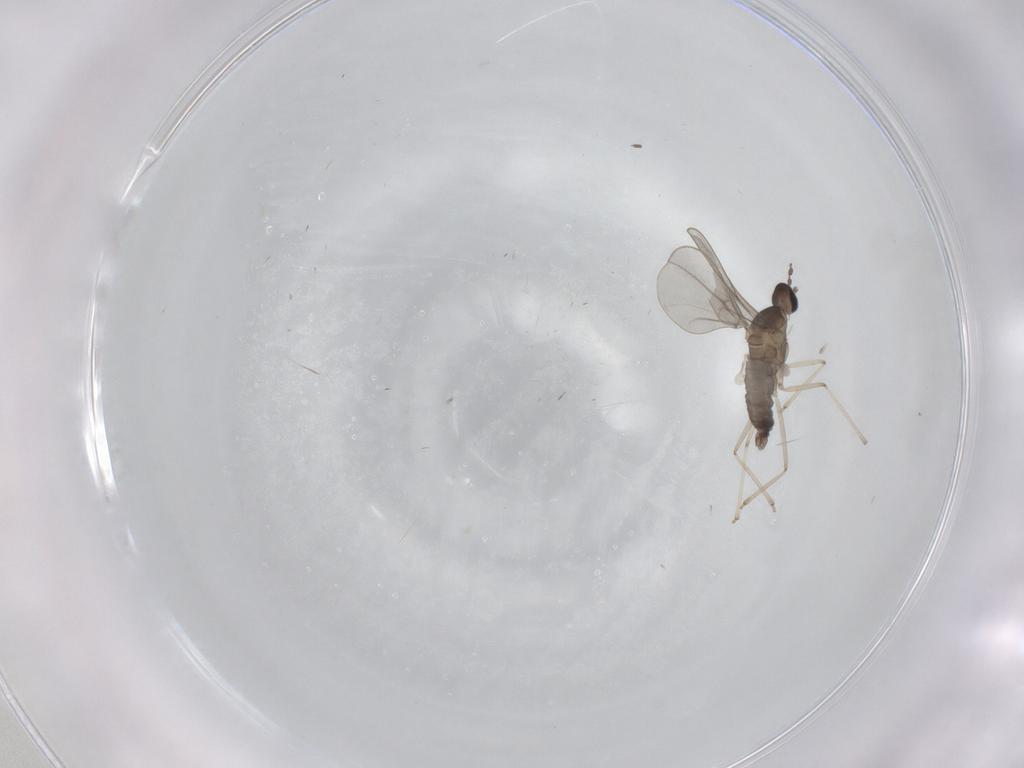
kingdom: Animalia
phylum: Arthropoda
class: Insecta
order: Diptera
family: Cecidomyiidae
